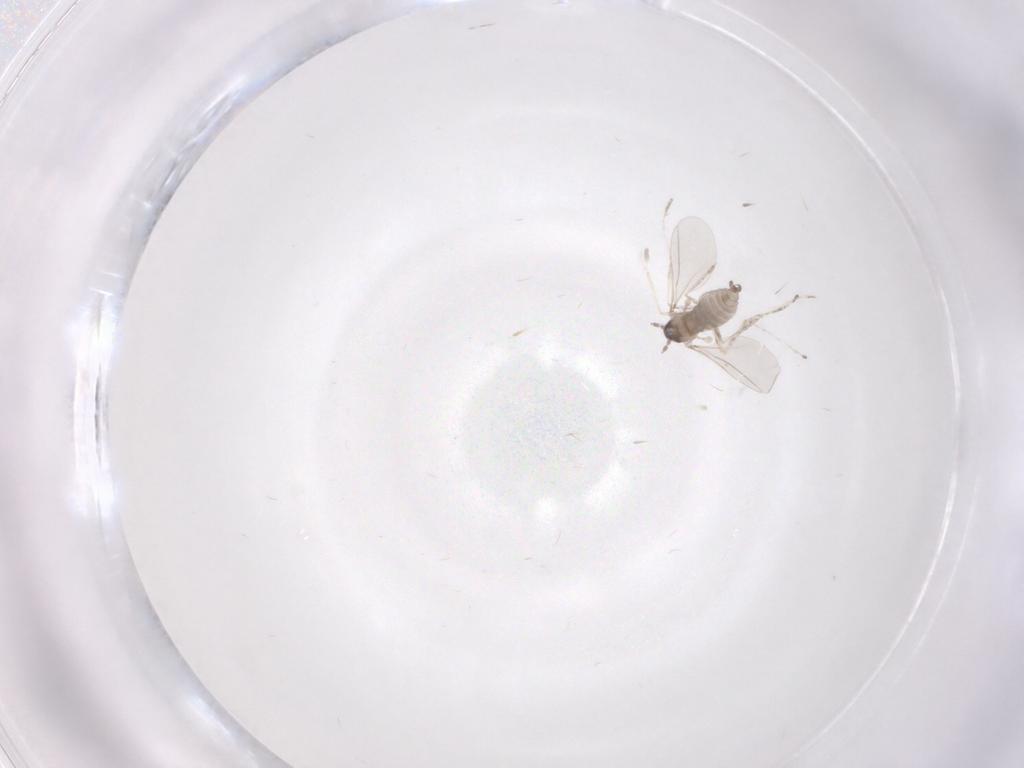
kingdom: Animalia
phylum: Arthropoda
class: Insecta
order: Diptera
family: Cecidomyiidae
